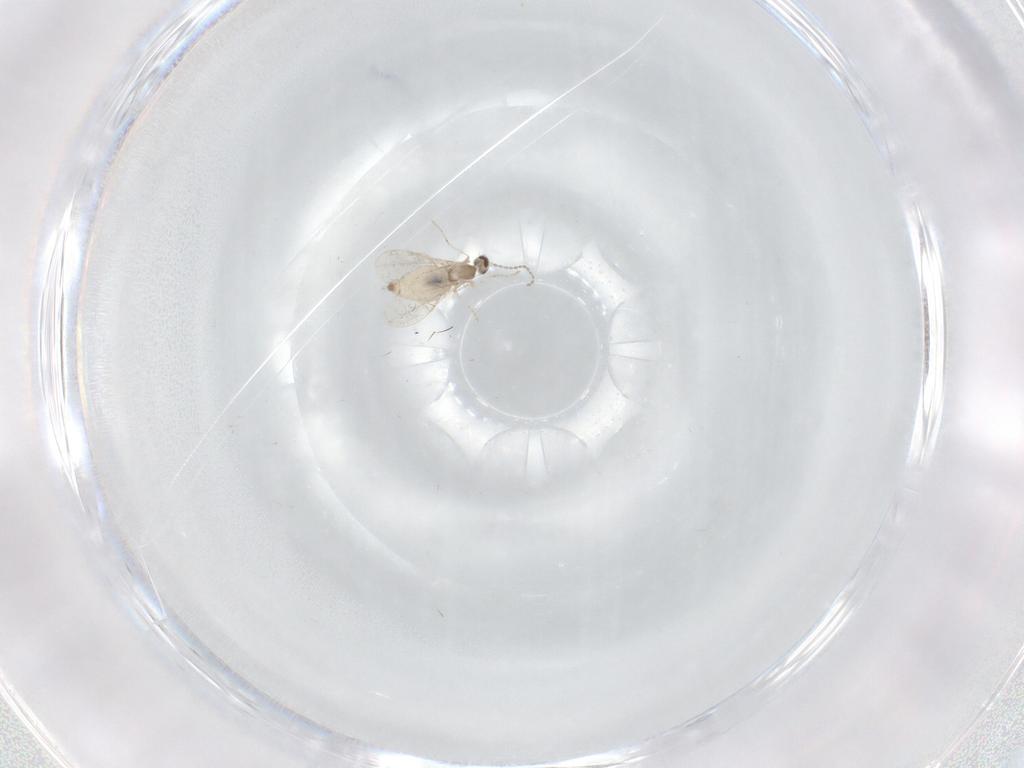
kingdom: Animalia
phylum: Arthropoda
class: Insecta
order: Diptera
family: Cecidomyiidae
